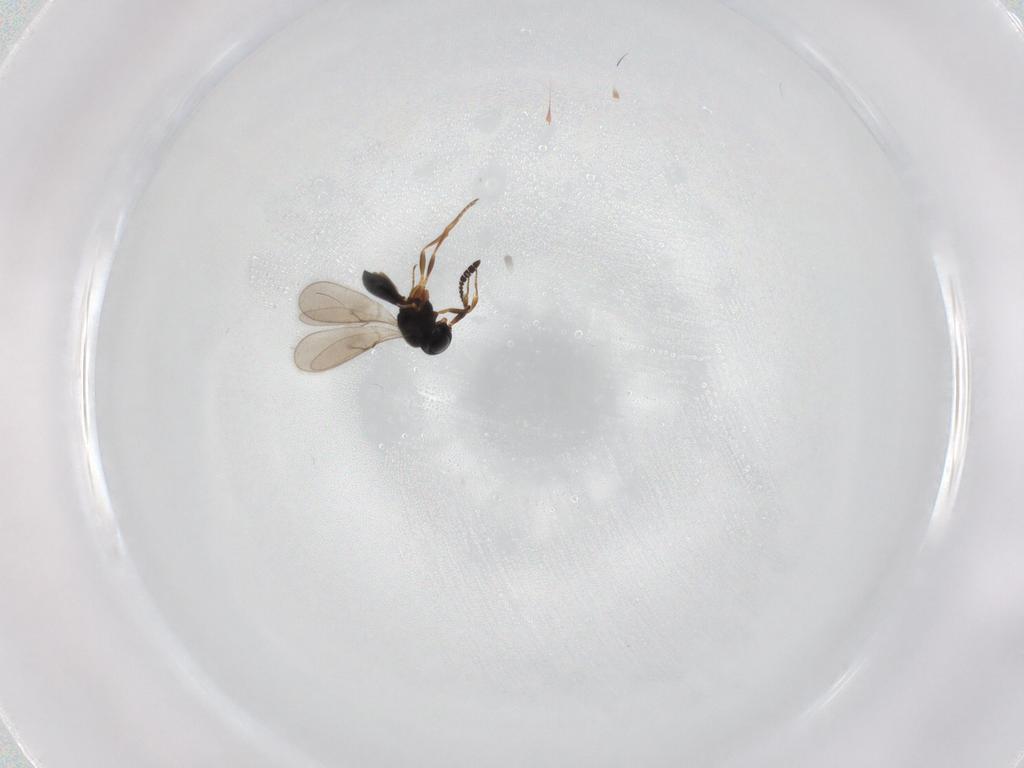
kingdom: Animalia
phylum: Arthropoda
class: Insecta
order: Hymenoptera
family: Scelionidae
